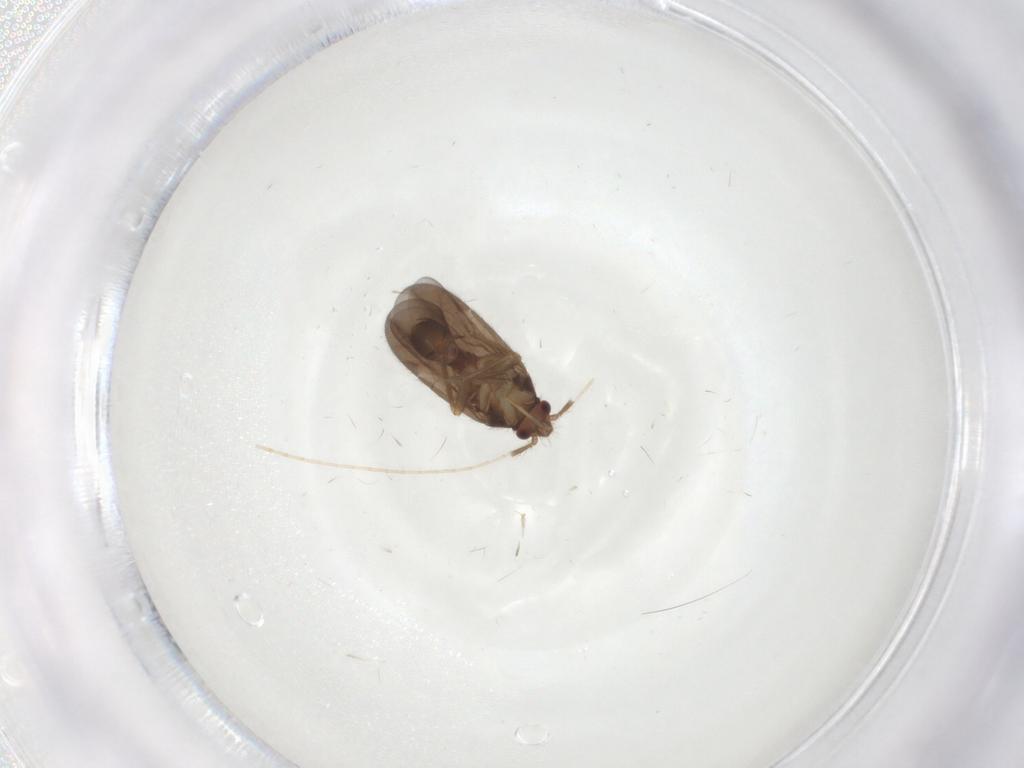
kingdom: Animalia
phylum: Arthropoda
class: Insecta
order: Hemiptera
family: Ceratocombidae
